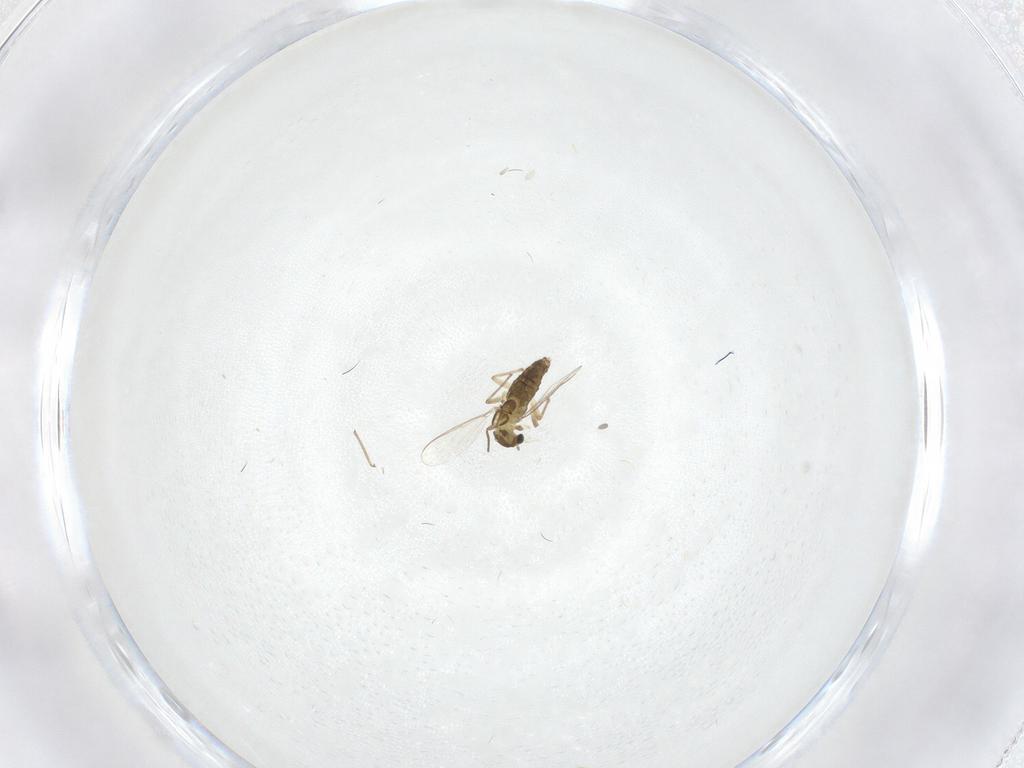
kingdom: Animalia
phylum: Arthropoda
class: Insecta
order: Diptera
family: Chironomidae
